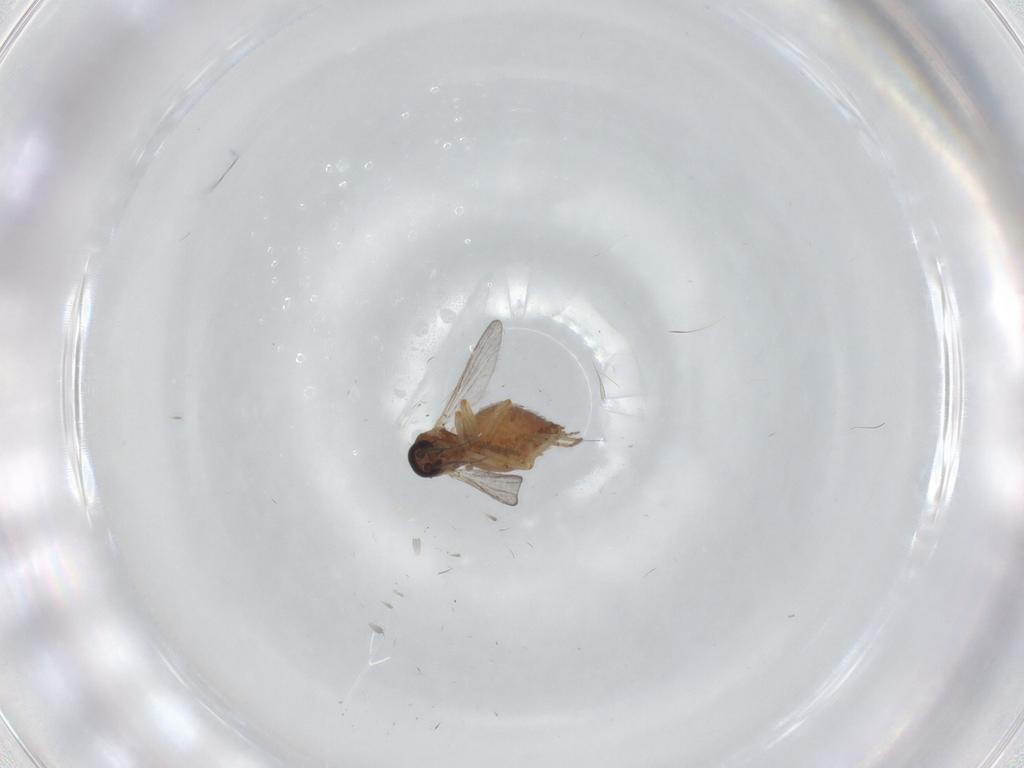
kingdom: Animalia
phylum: Arthropoda
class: Insecta
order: Diptera
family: Ceratopogonidae
